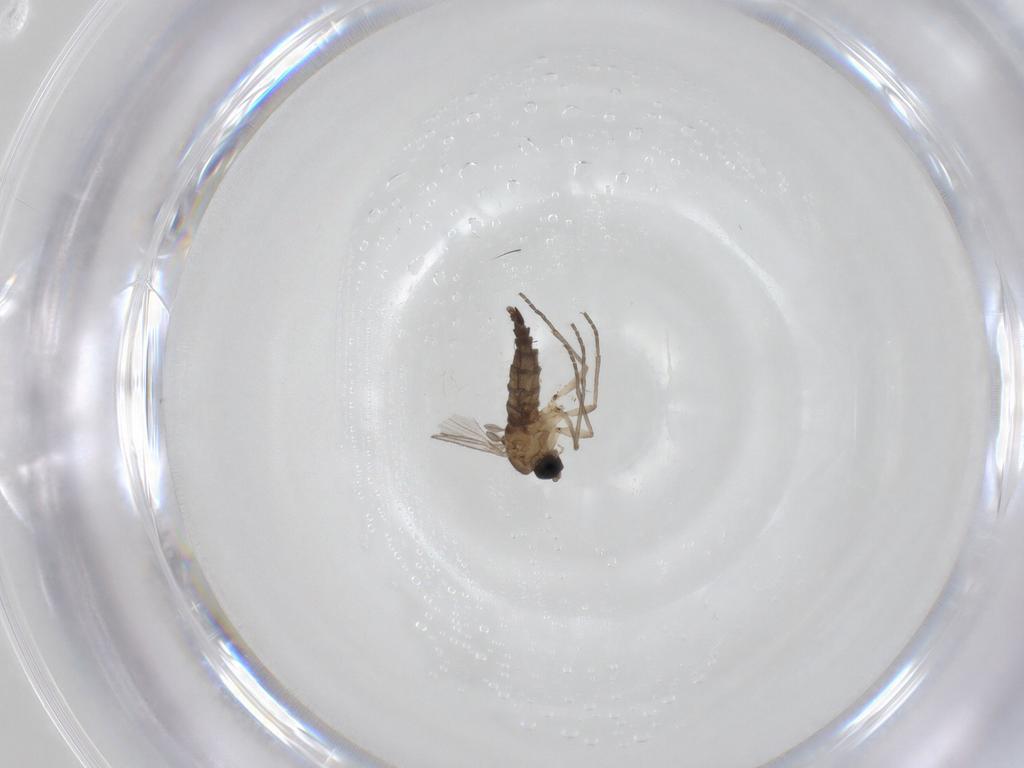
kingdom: Animalia
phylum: Arthropoda
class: Insecta
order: Diptera
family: Sciaridae
